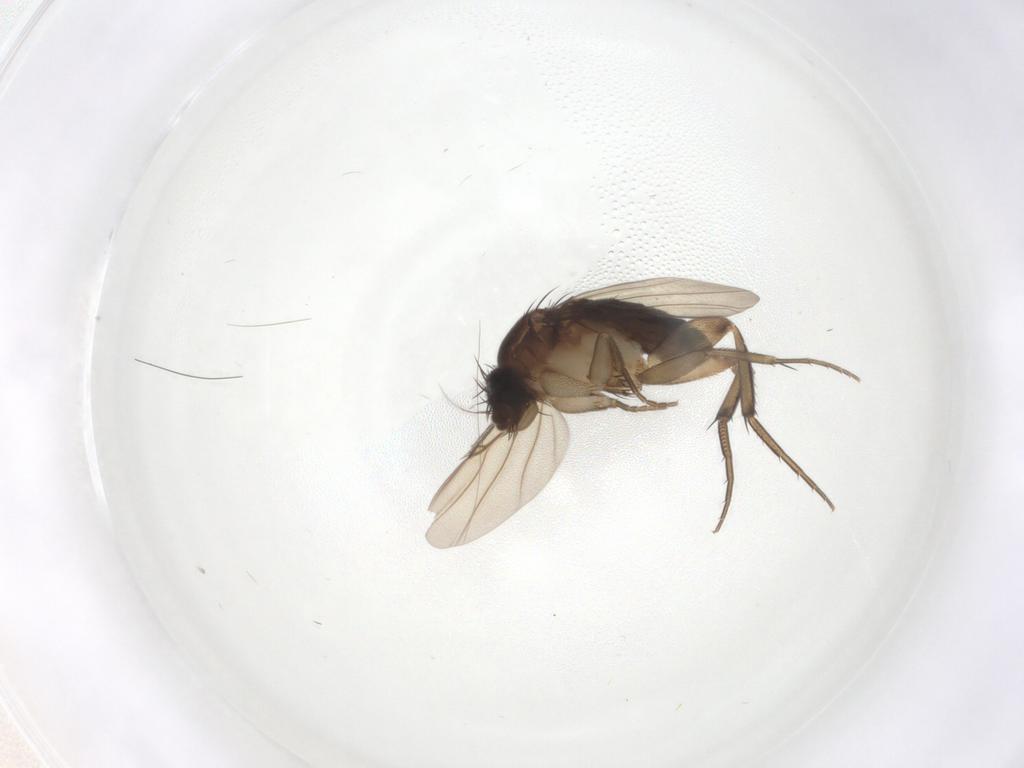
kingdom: Animalia
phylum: Arthropoda
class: Insecta
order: Diptera
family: Phoridae
